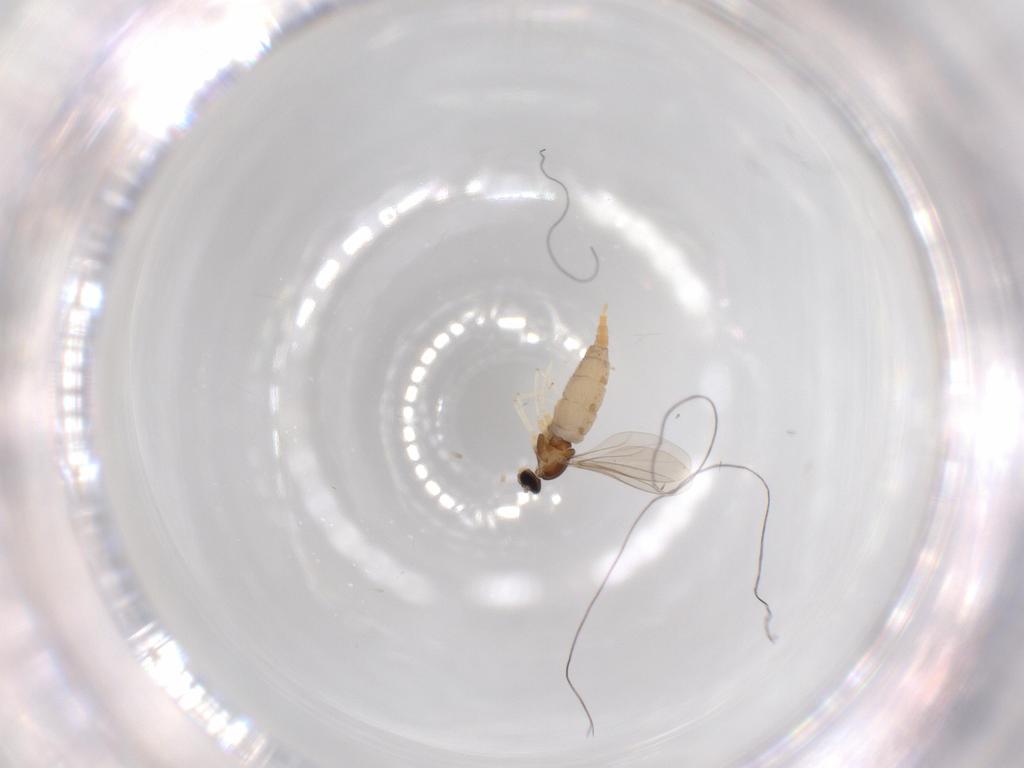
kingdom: Animalia
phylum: Arthropoda
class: Insecta
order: Diptera
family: Cecidomyiidae
